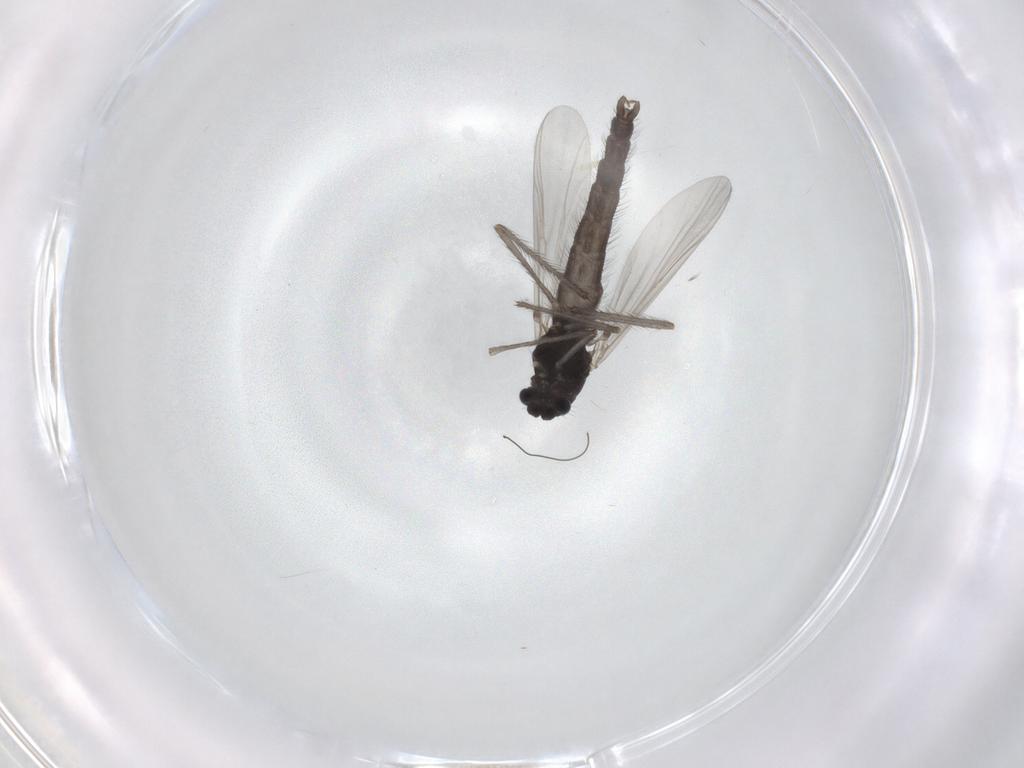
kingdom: Animalia
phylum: Arthropoda
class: Insecta
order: Diptera
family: Chironomidae
